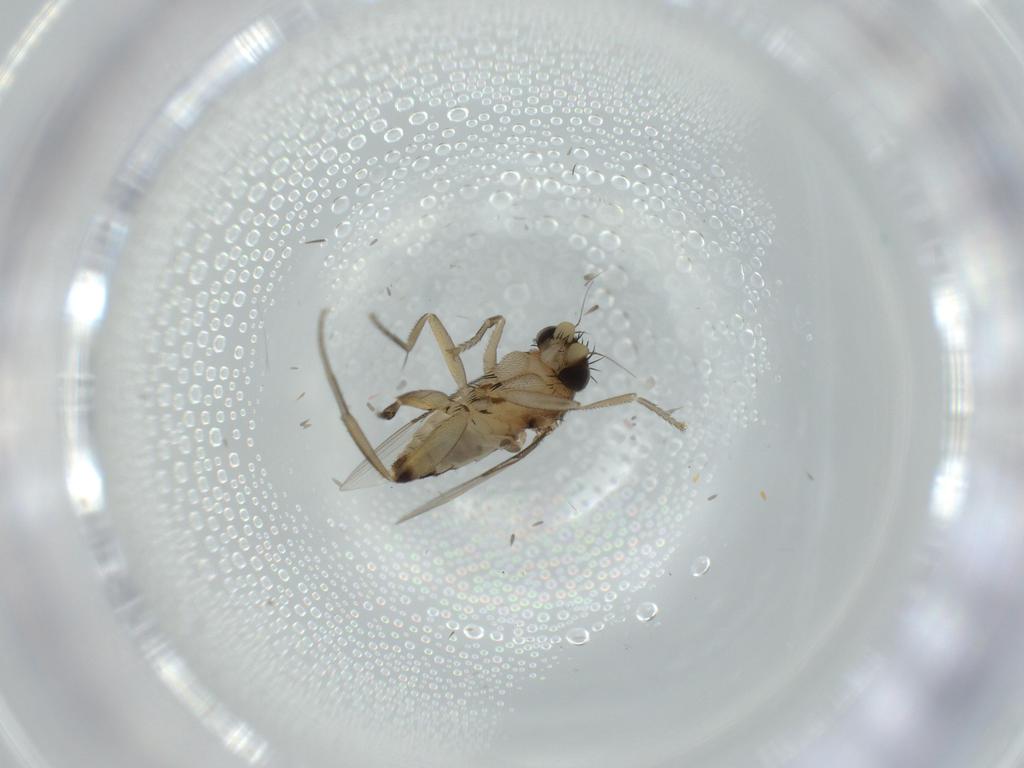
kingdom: Animalia
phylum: Arthropoda
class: Insecta
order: Diptera
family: Phoridae
